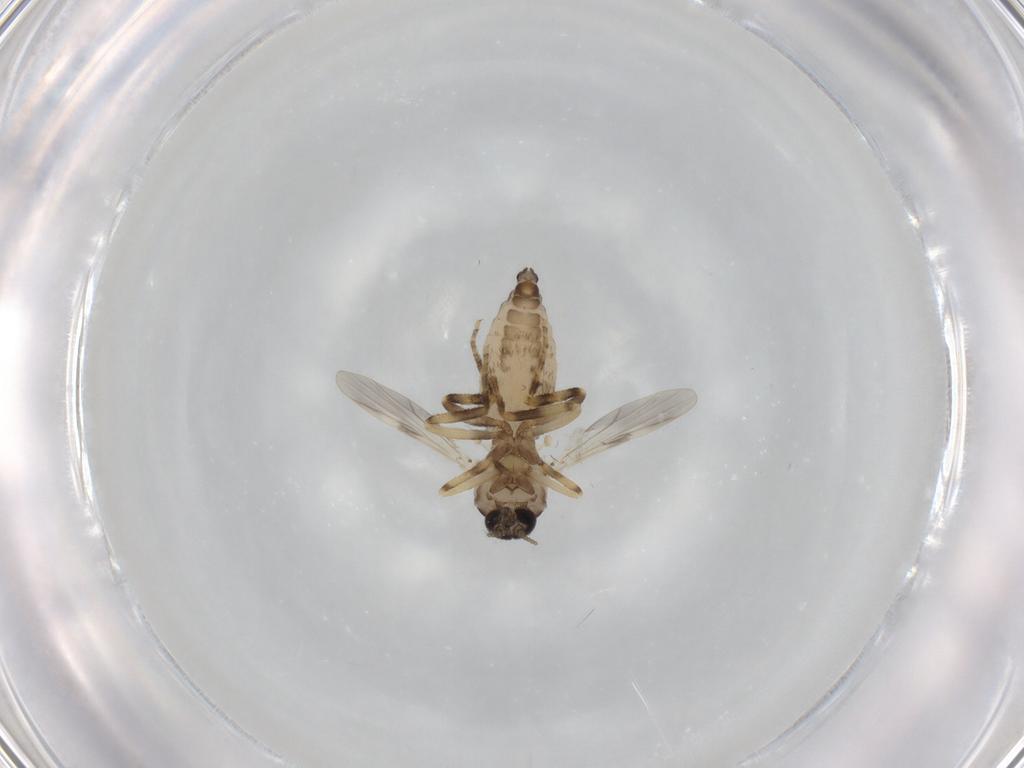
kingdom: Animalia
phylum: Arthropoda
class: Insecta
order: Diptera
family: Ceratopogonidae
